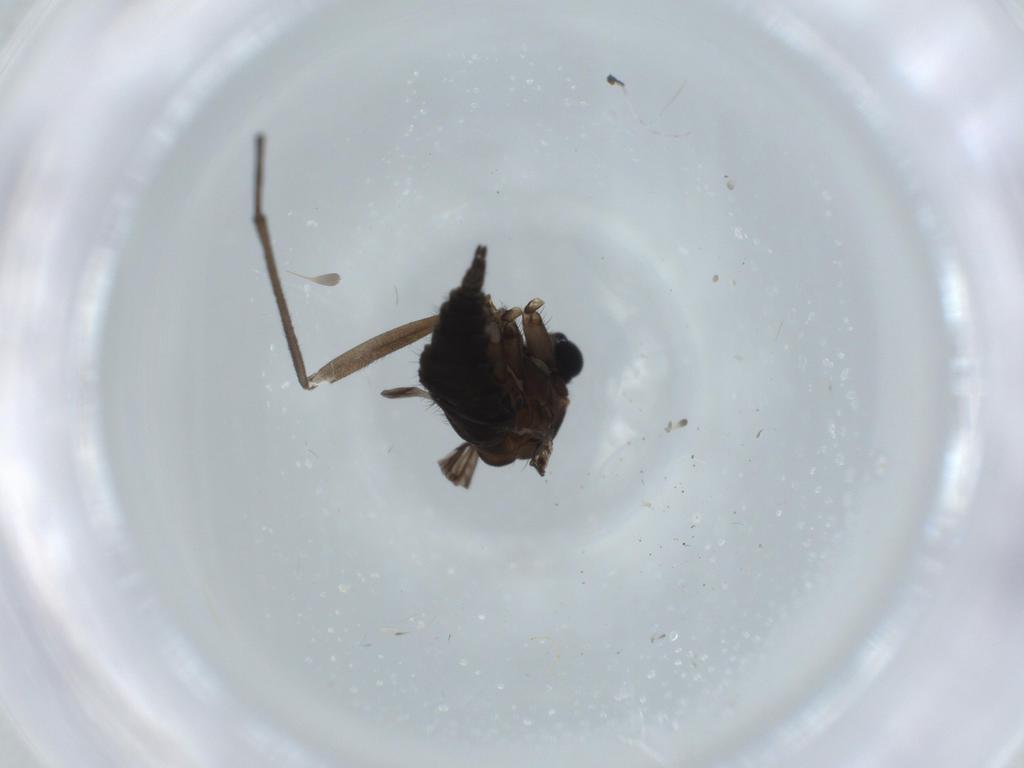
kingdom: Animalia
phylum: Arthropoda
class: Insecta
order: Diptera
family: Sciaridae
